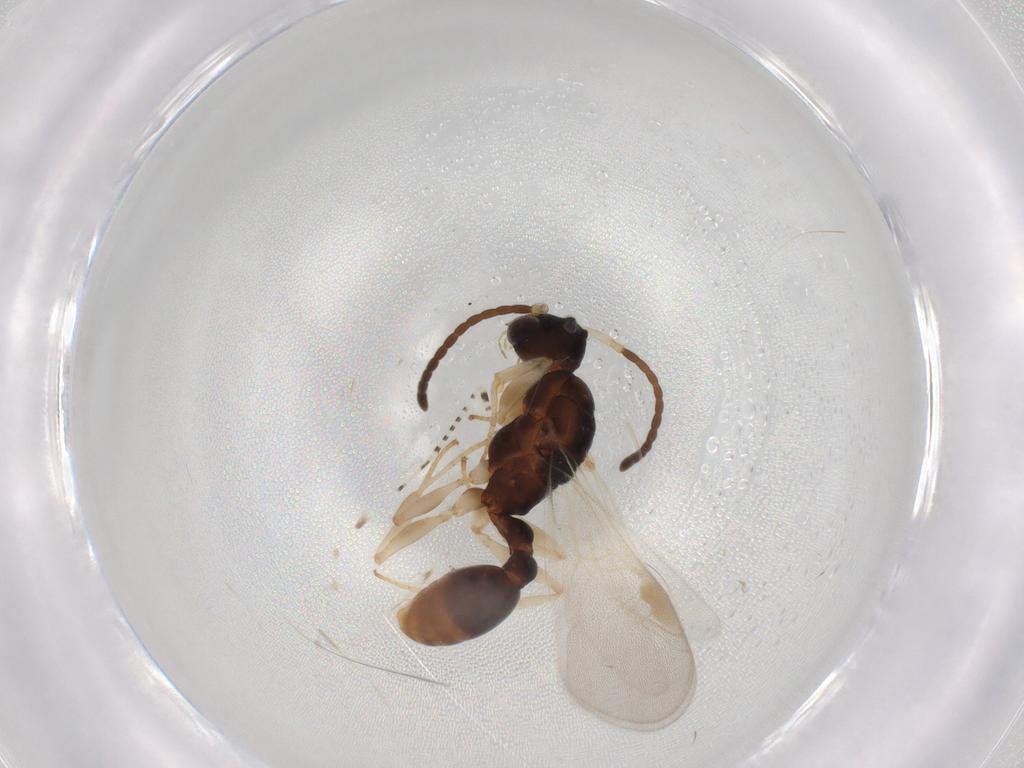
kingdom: Animalia
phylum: Arthropoda
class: Insecta
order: Hymenoptera
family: Formicidae
